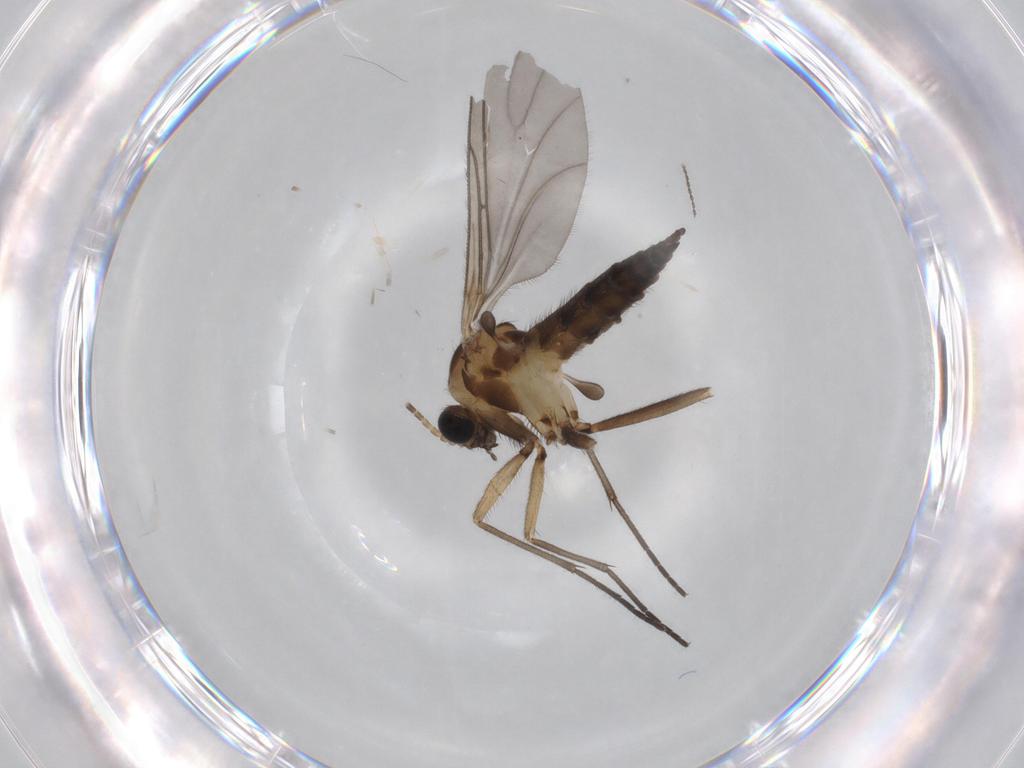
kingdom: Animalia
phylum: Arthropoda
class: Insecta
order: Diptera
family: Sciaridae
